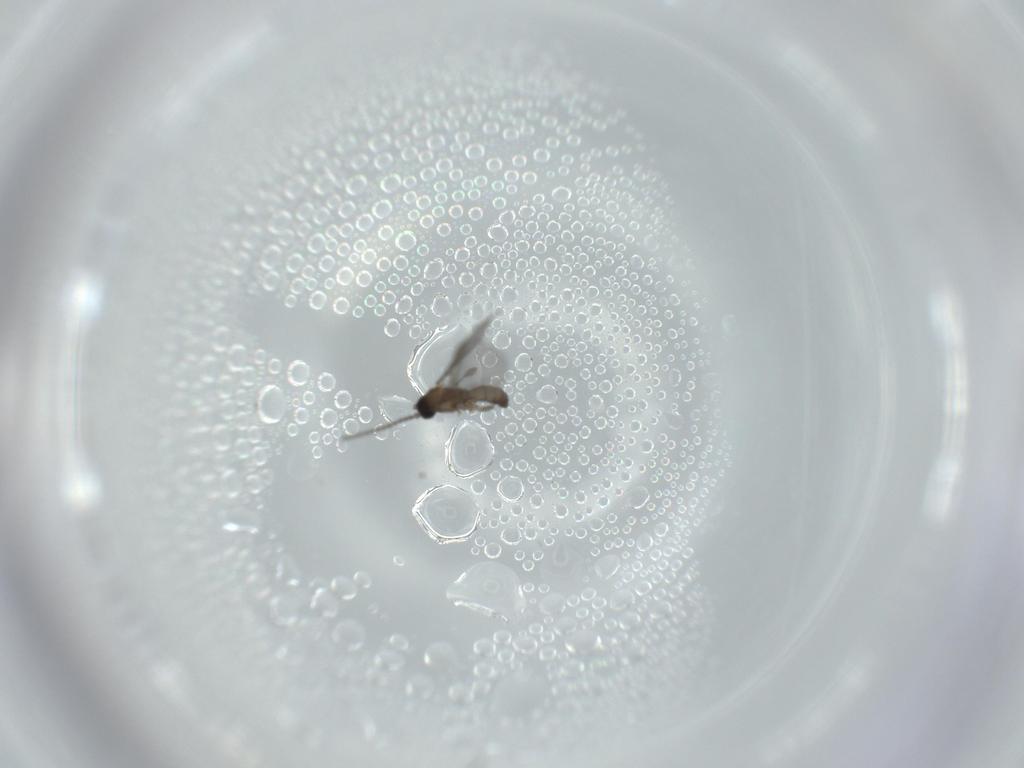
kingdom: Animalia
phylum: Arthropoda
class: Insecta
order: Diptera
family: Sciaridae
